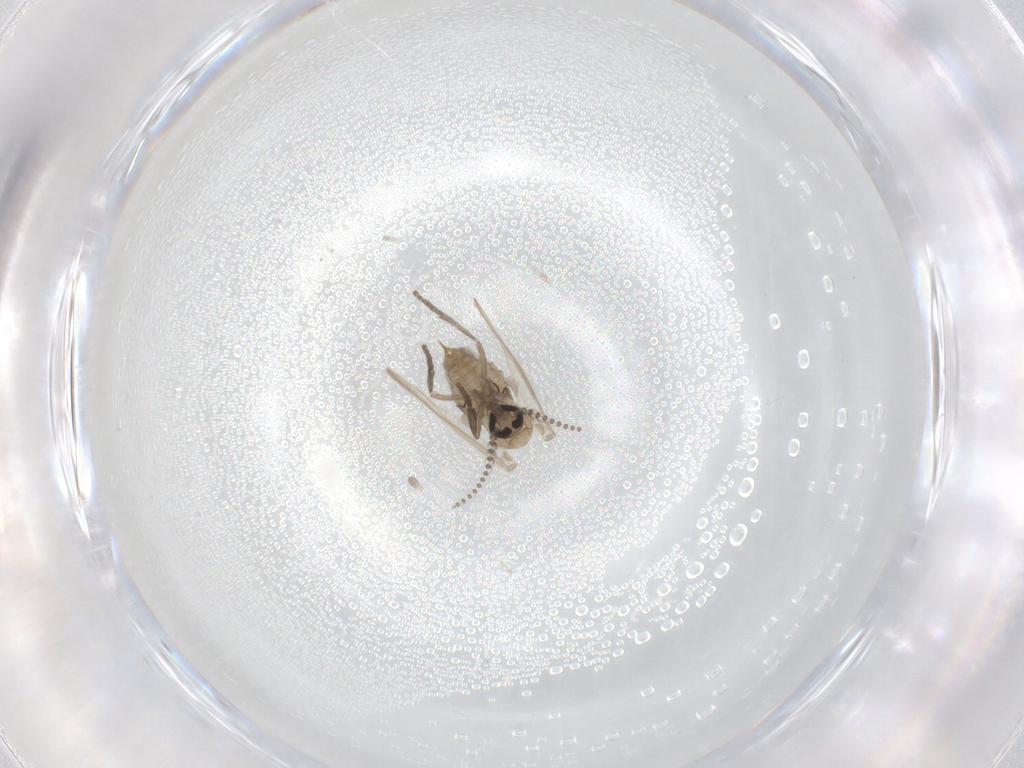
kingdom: Animalia
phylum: Arthropoda
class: Insecta
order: Diptera
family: Psychodidae
